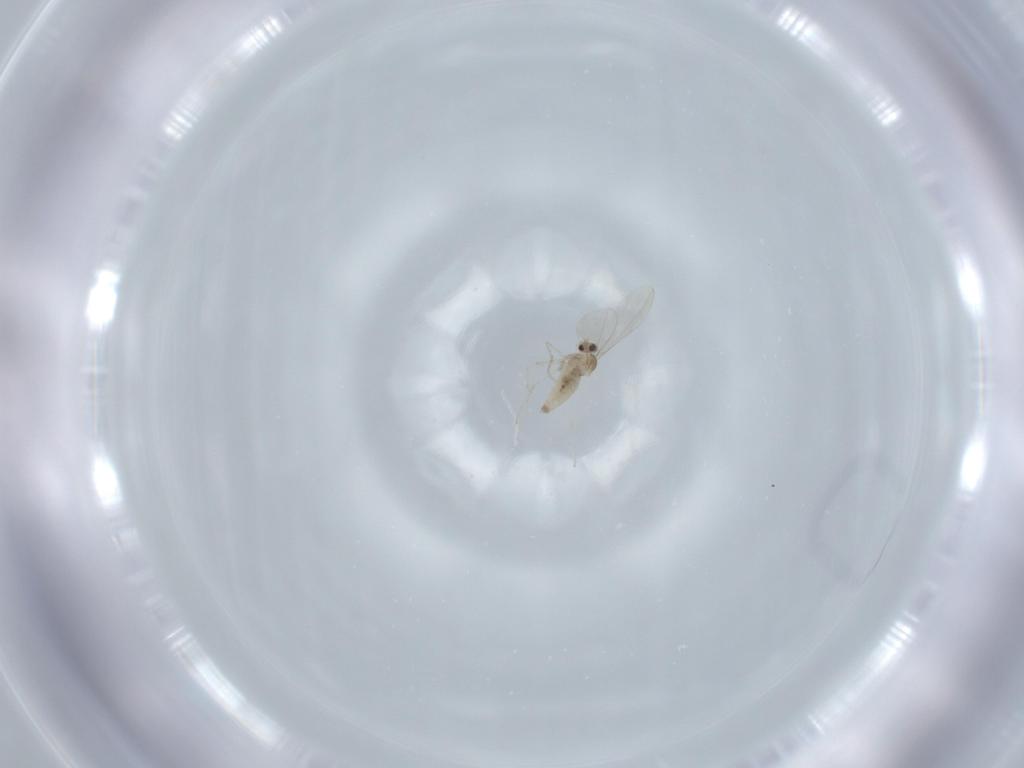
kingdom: Animalia
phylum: Arthropoda
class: Insecta
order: Diptera
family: Cecidomyiidae
